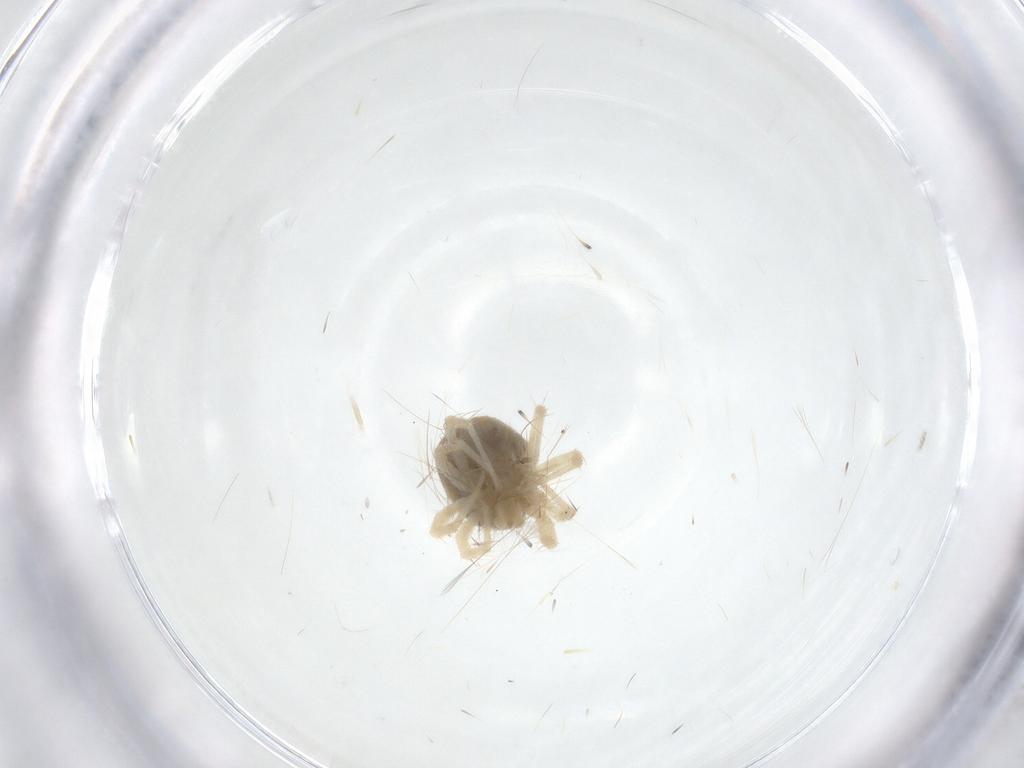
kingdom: Animalia
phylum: Arthropoda
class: Arachnida
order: Trombidiformes
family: Anystidae
